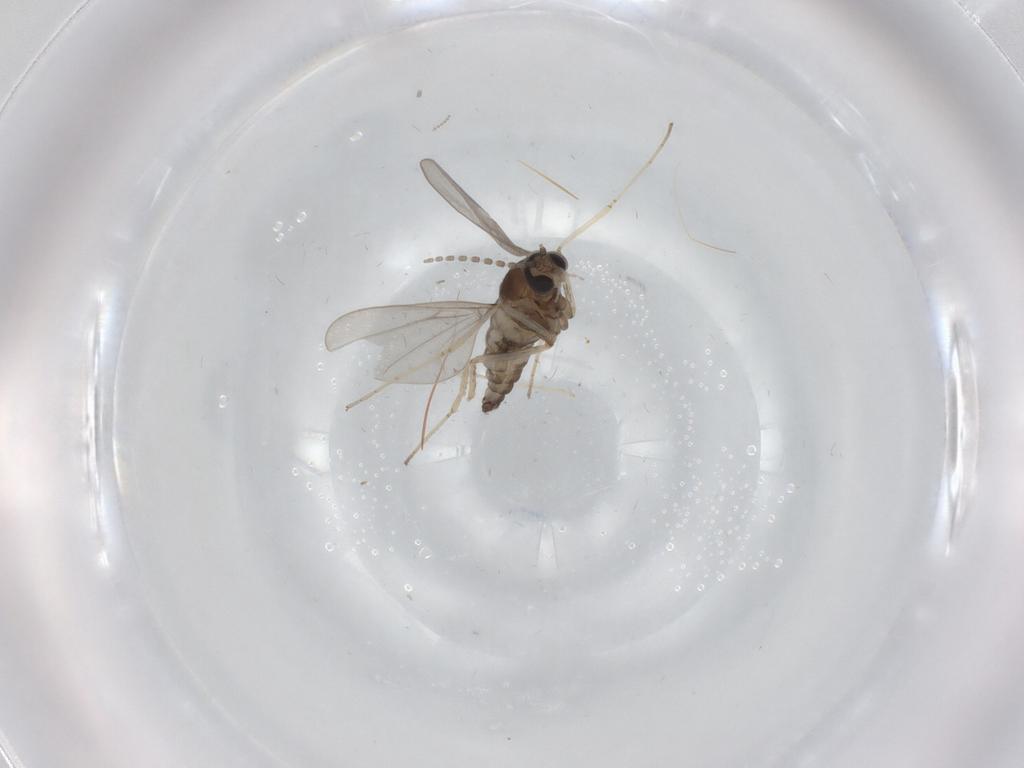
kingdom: Animalia
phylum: Arthropoda
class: Insecta
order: Diptera
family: Cecidomyiidae
